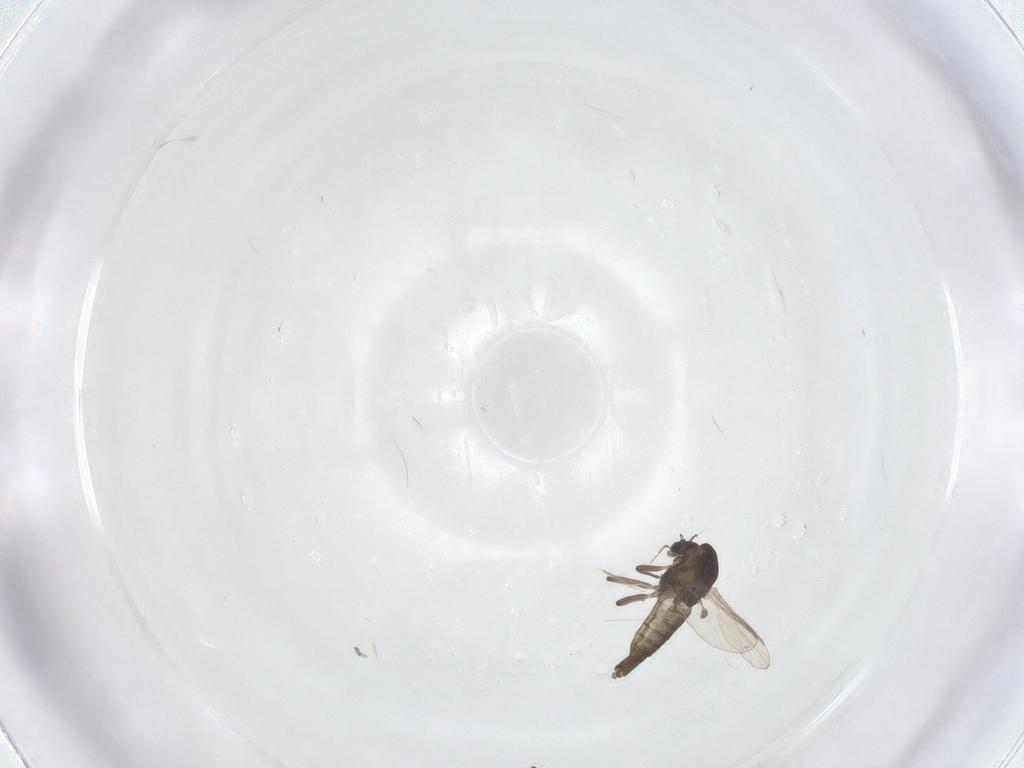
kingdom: Animalia
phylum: Arthropoda
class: Insecta
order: Diptera
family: Chironomidae
